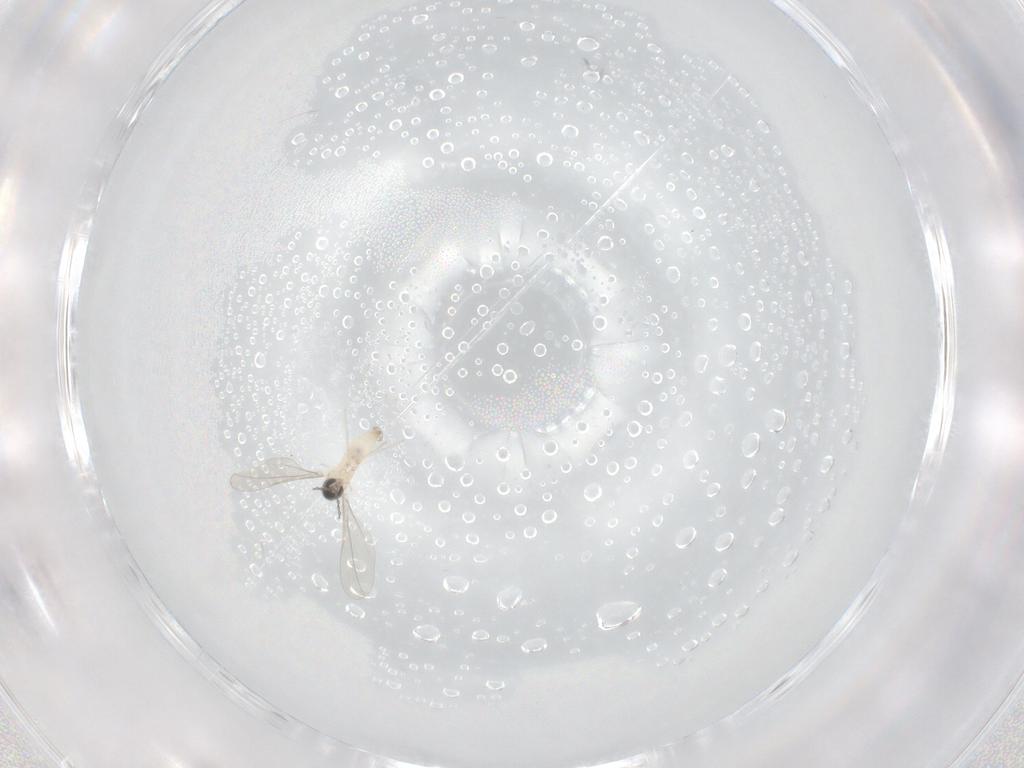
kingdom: Animalia
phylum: Arthropoda
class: Insecta
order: Diptera
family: Cecidomyiidae
